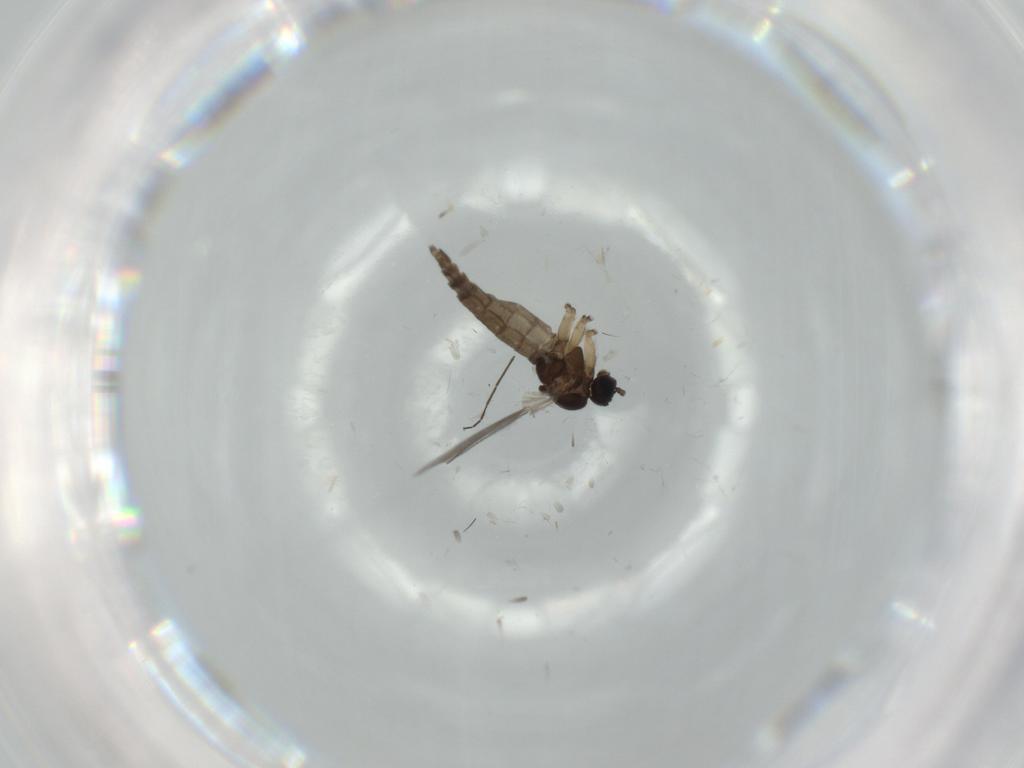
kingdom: Animalia
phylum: Arthropoda
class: Insecta
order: Diptera
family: Sciaridae
